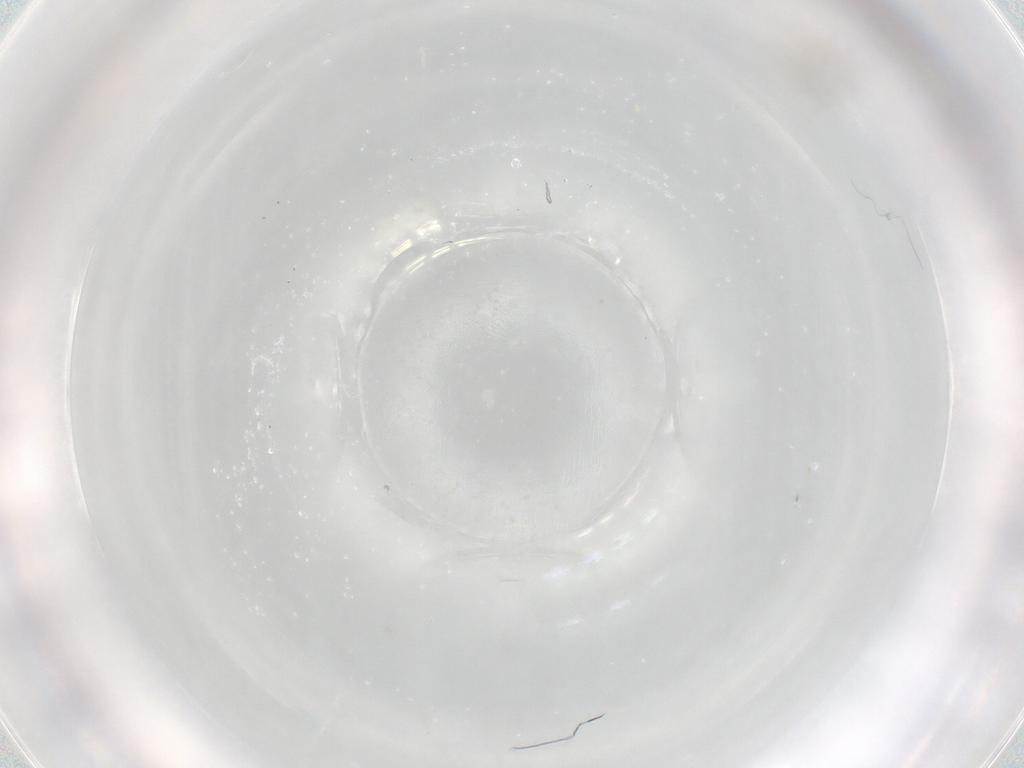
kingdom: Animalia
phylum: Arthropoda
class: Insecta
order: Diptera
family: Cecidomyiidae
